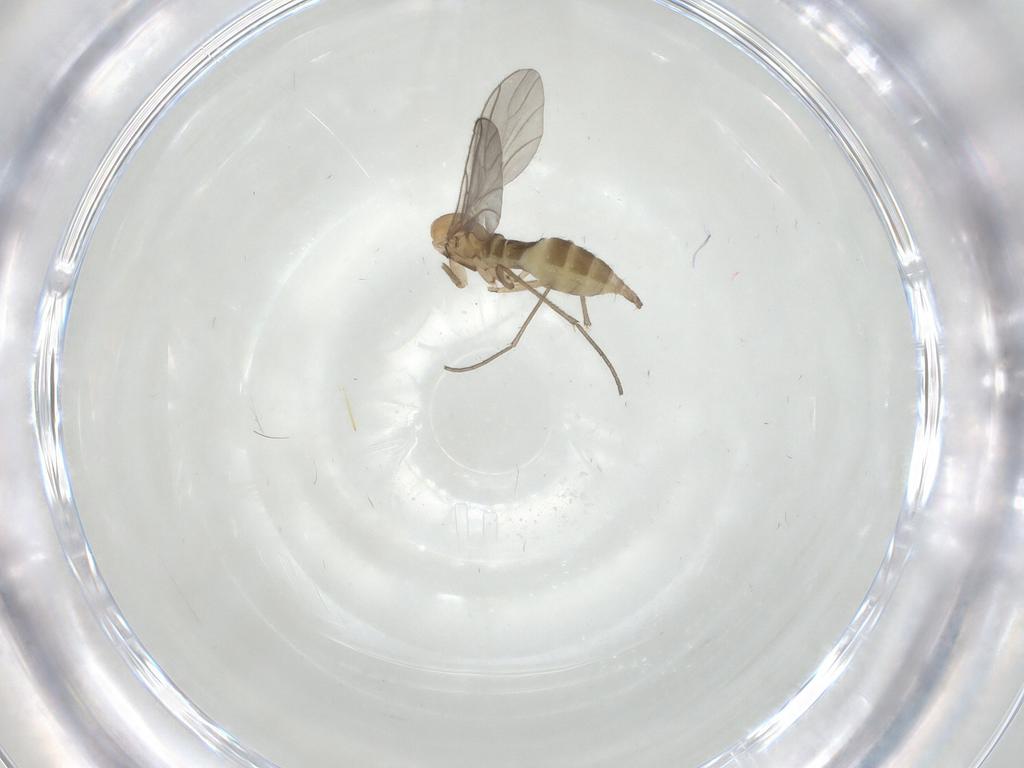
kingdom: Animalia
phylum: Arthropoda
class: Insecta
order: Diptera
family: Sciaridae
